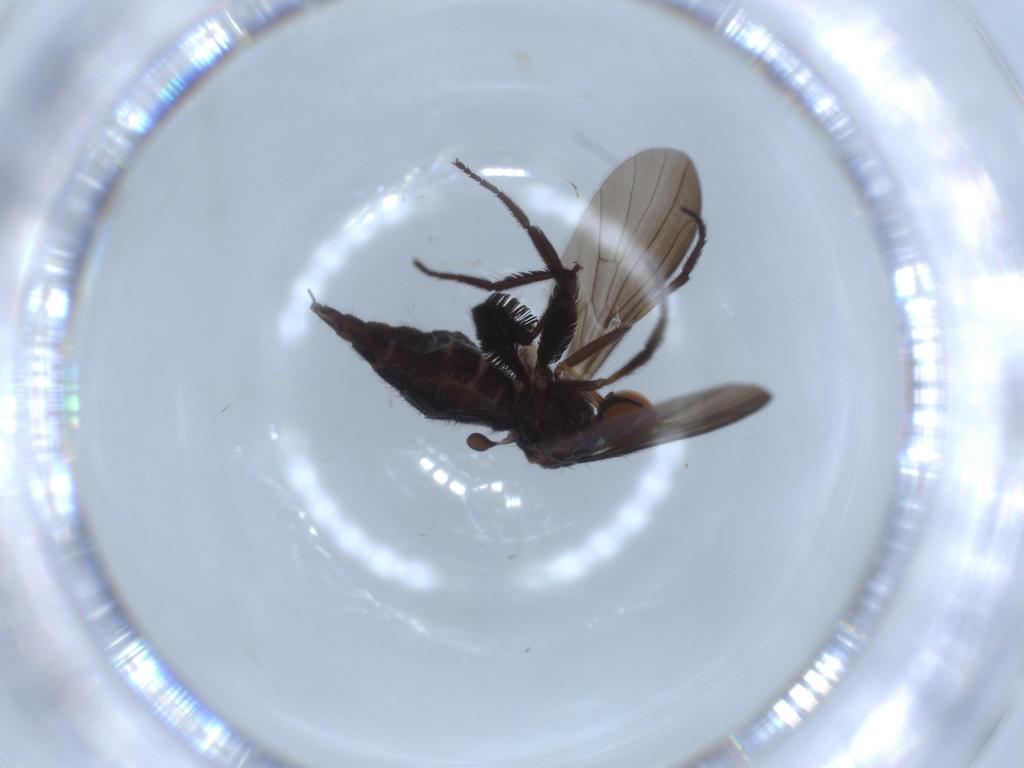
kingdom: Animalia
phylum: Arthropoda
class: Insecta
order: Diptera
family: Empididae
